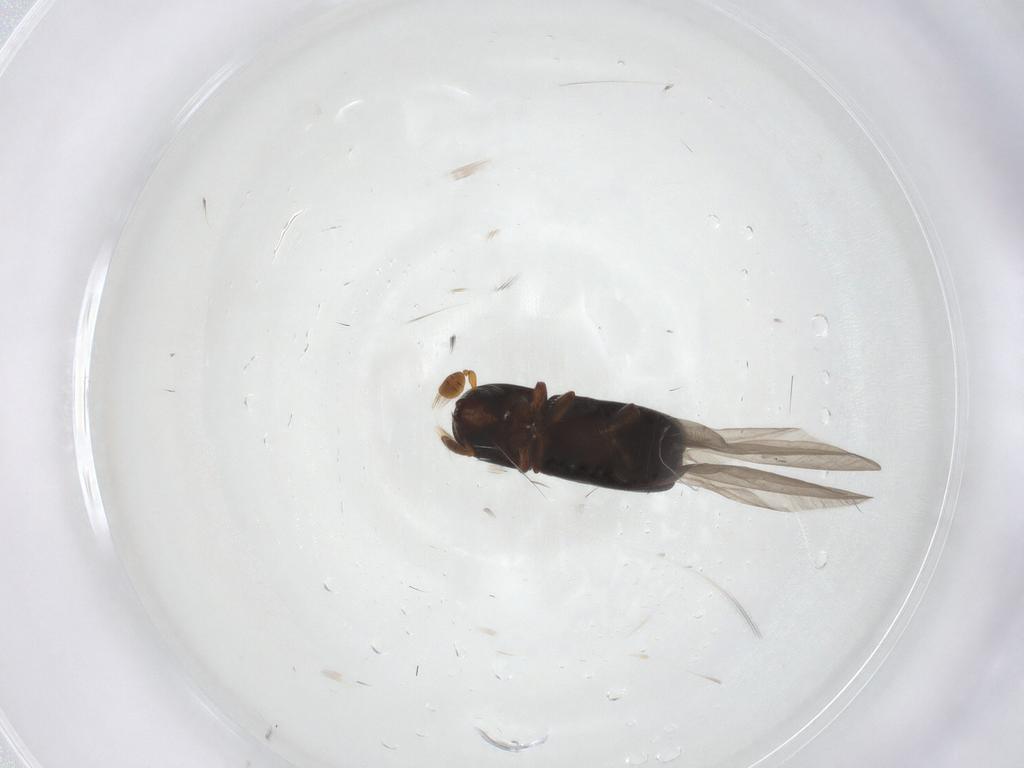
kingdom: Animalia
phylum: Arthropoda
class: Insecta
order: Coleoptera
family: Curculionidae
